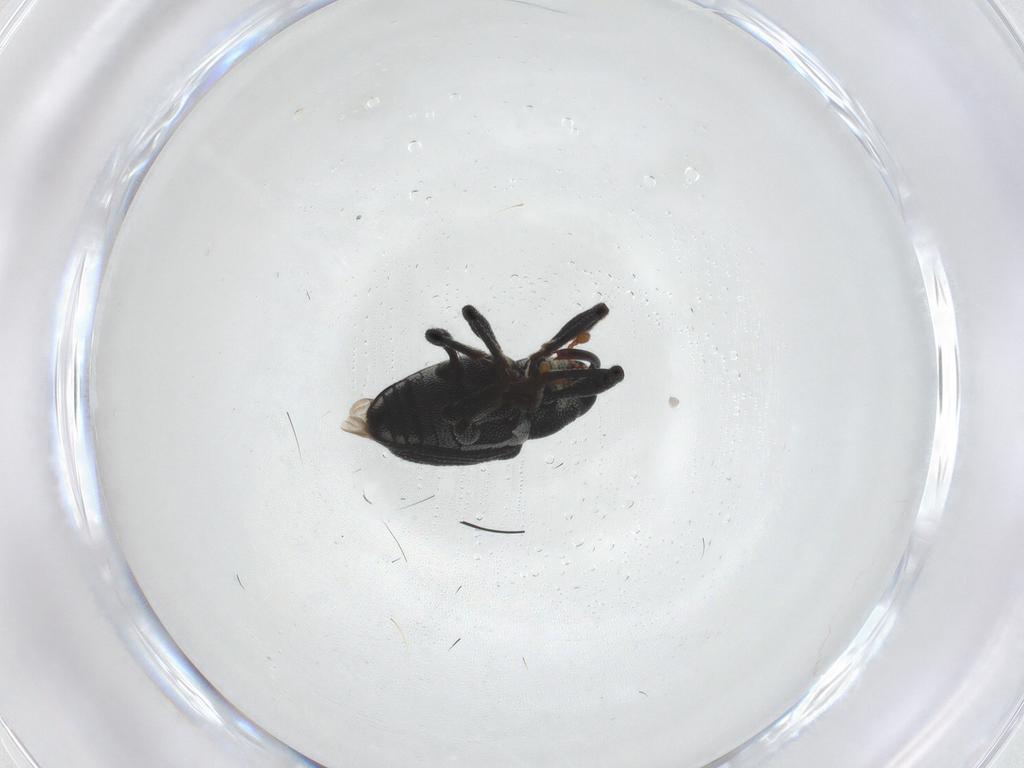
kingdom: Animalia
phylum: Arthropoda
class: Insecta
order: Coleoptera
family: Curculionidae
